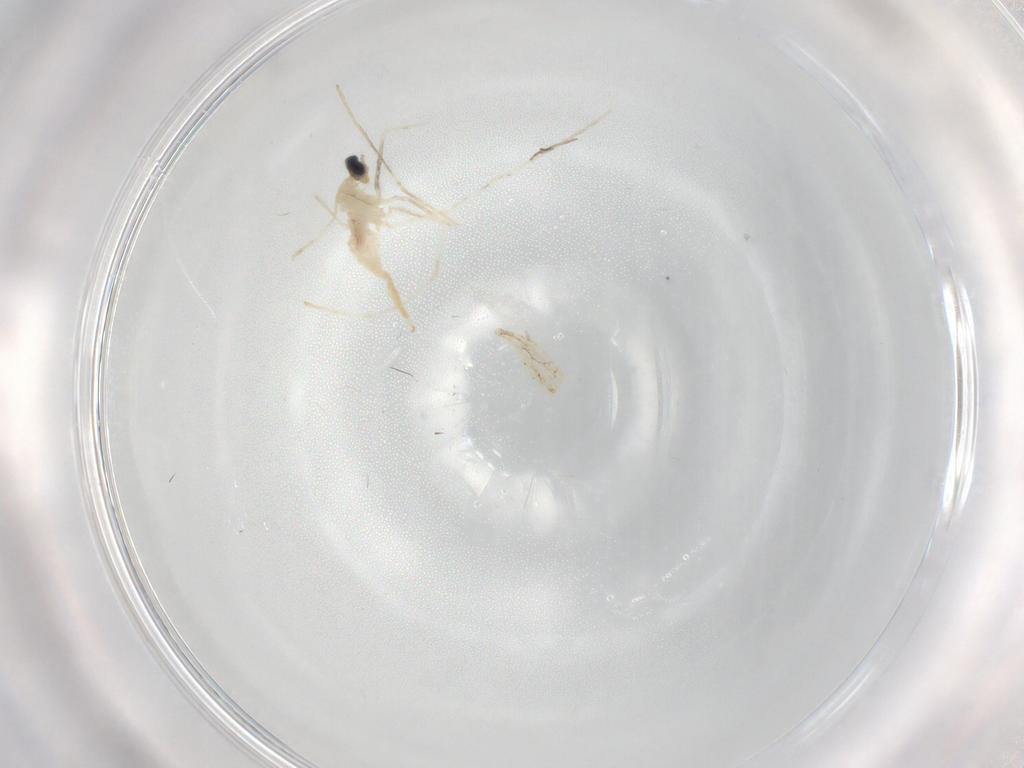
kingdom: Animalia
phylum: Arthropoda
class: Insecta
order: Diptera
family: Chironomidae
